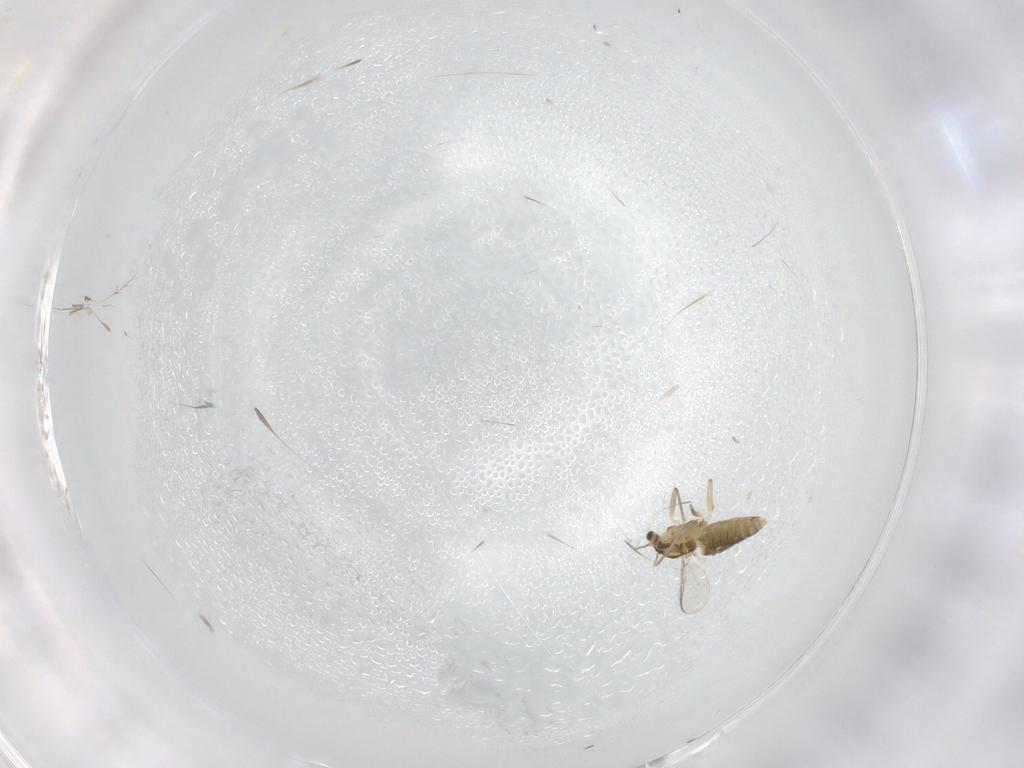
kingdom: Animalia
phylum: Arthropoda
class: Insecta
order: Diptera
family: Chironomidae
